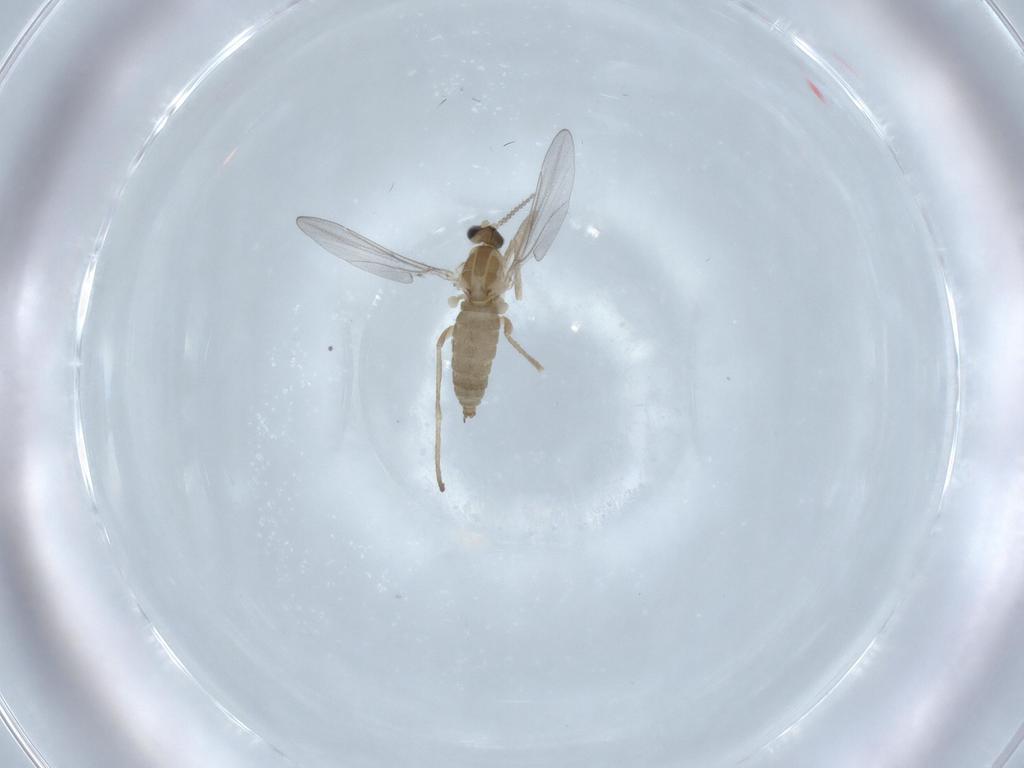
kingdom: Animalia
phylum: Arthropoda
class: Insecta
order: Diptera
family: Cecidomyiidae
